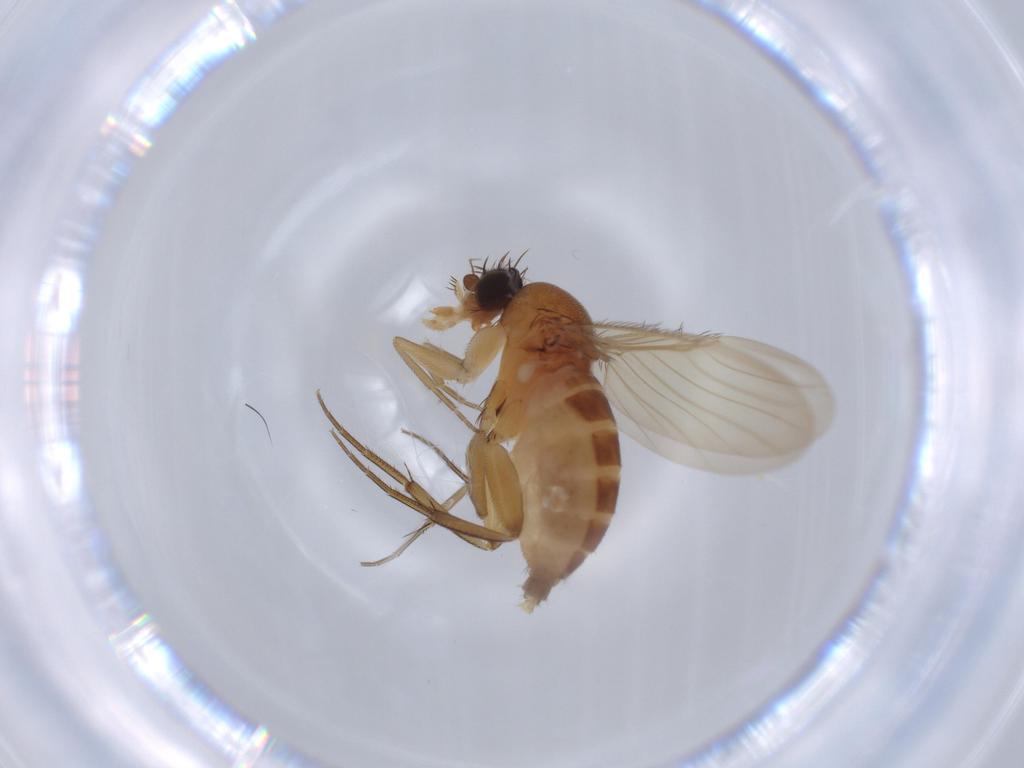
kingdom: Animalia
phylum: Arthropoda
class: Insecta
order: Diptera
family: Phoridae
